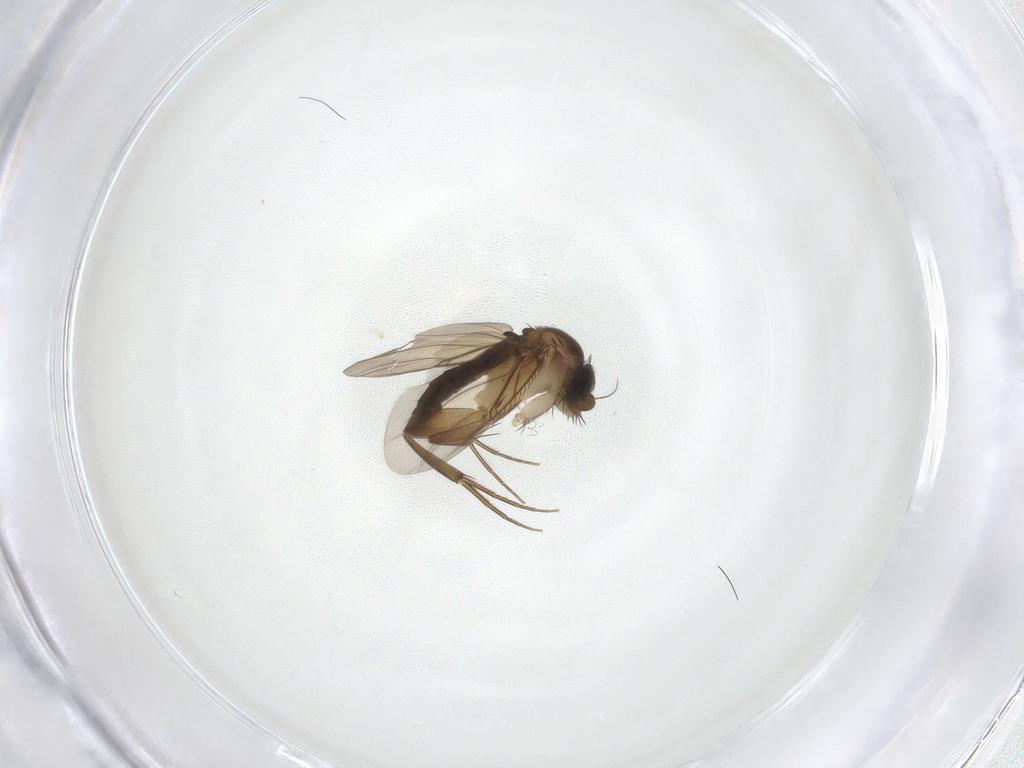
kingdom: Animalia
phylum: Arthropoda
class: Insecta
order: Diptera
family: Phoridae
